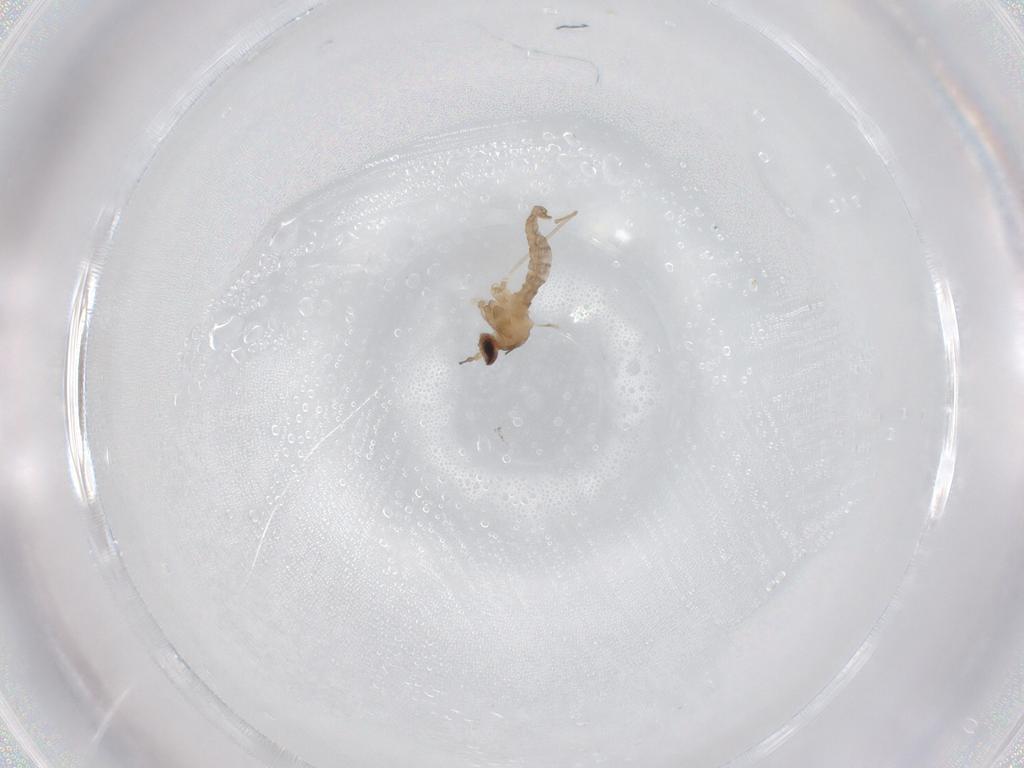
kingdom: Animalia
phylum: Arthropoda
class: Insecta
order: Diptera
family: Cecidomyiidae
